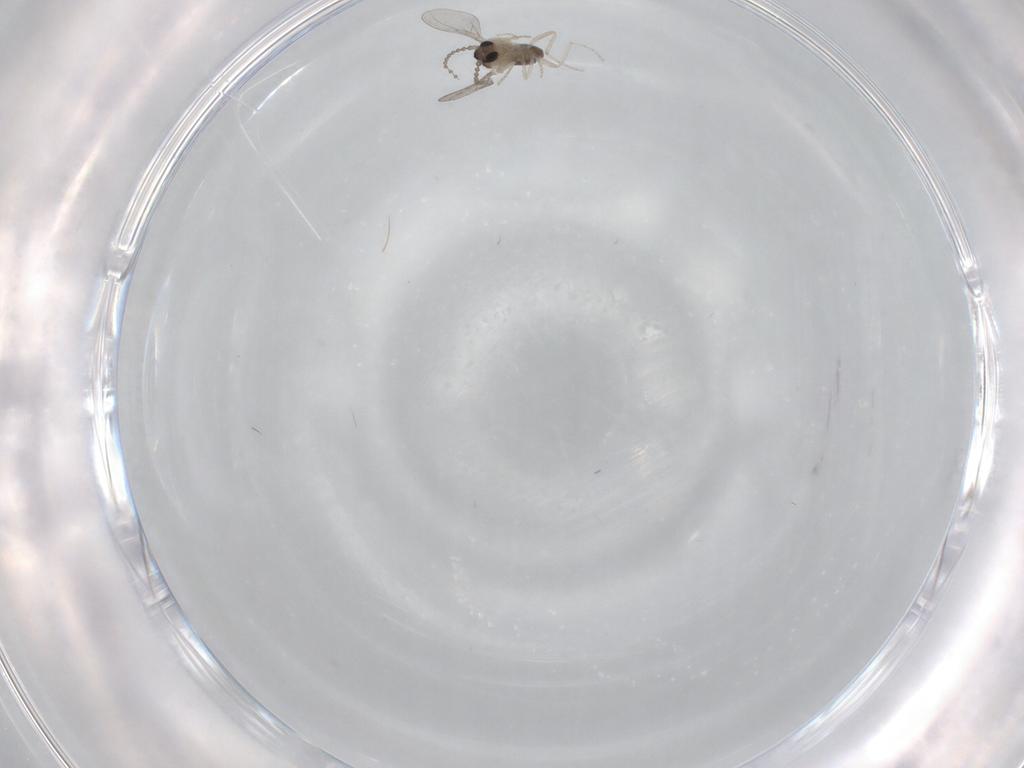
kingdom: Animalia
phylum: Arthropoda
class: Insecta
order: Diptera
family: Cecidomyiidae
